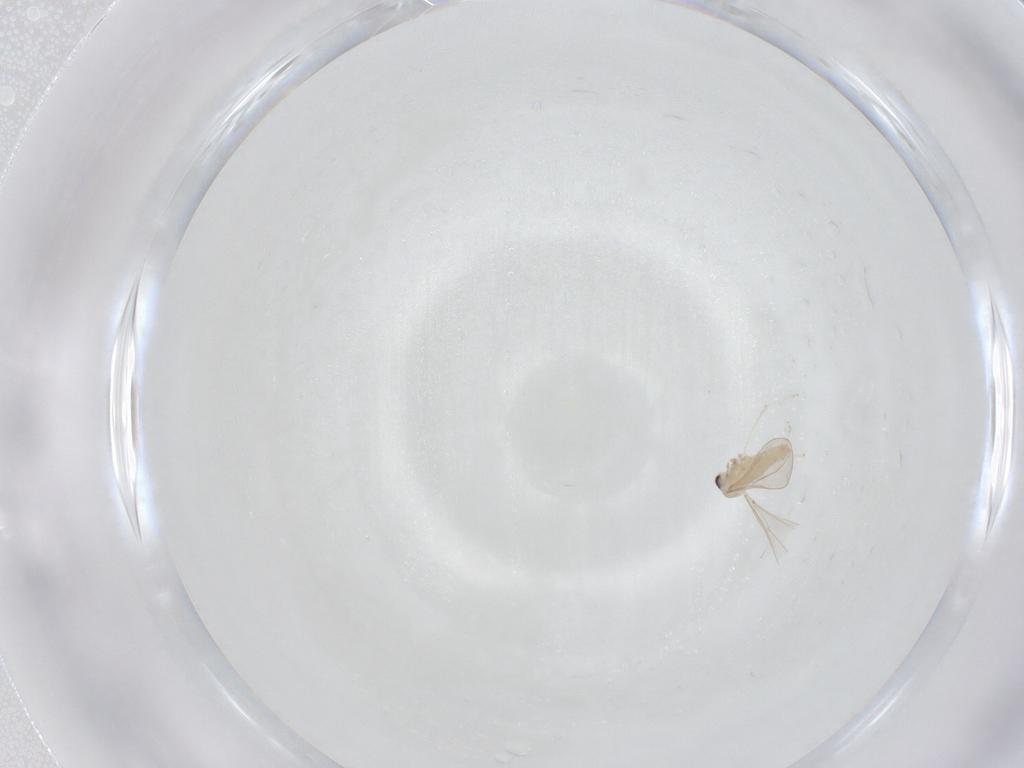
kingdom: Animalia
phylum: Arthropoda
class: Insecta
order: Diptera
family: Cecidomyiidae
